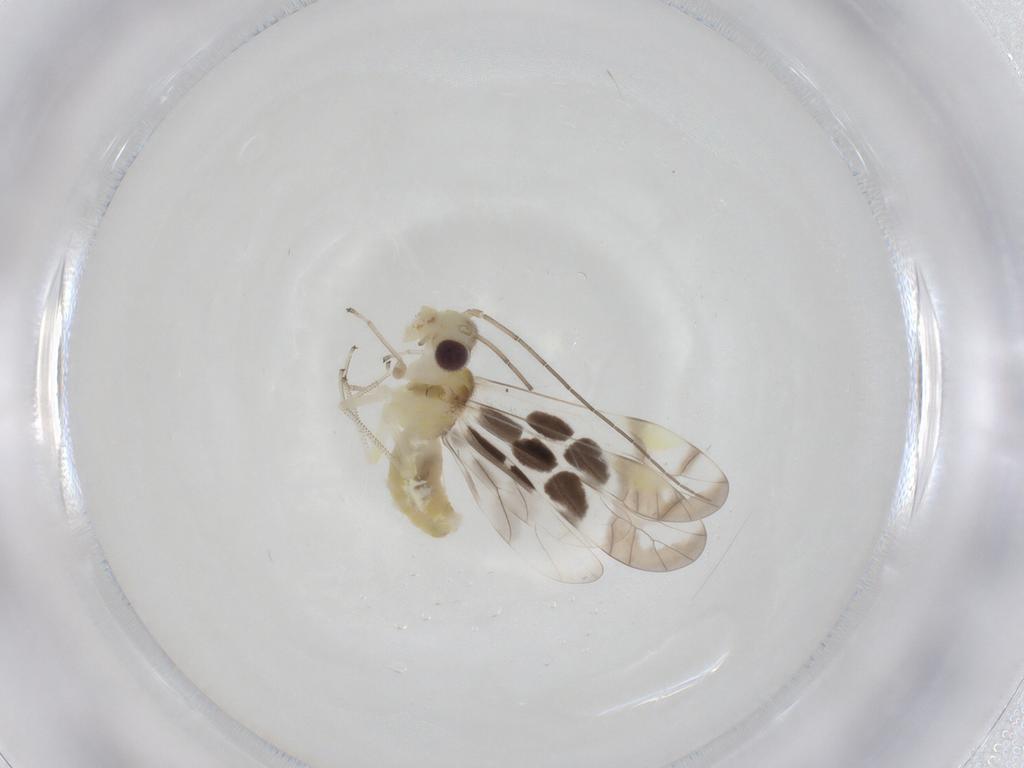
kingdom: Animalia
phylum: Arthropoda
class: Insecta
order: Psocodea
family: Stenopsocidae
